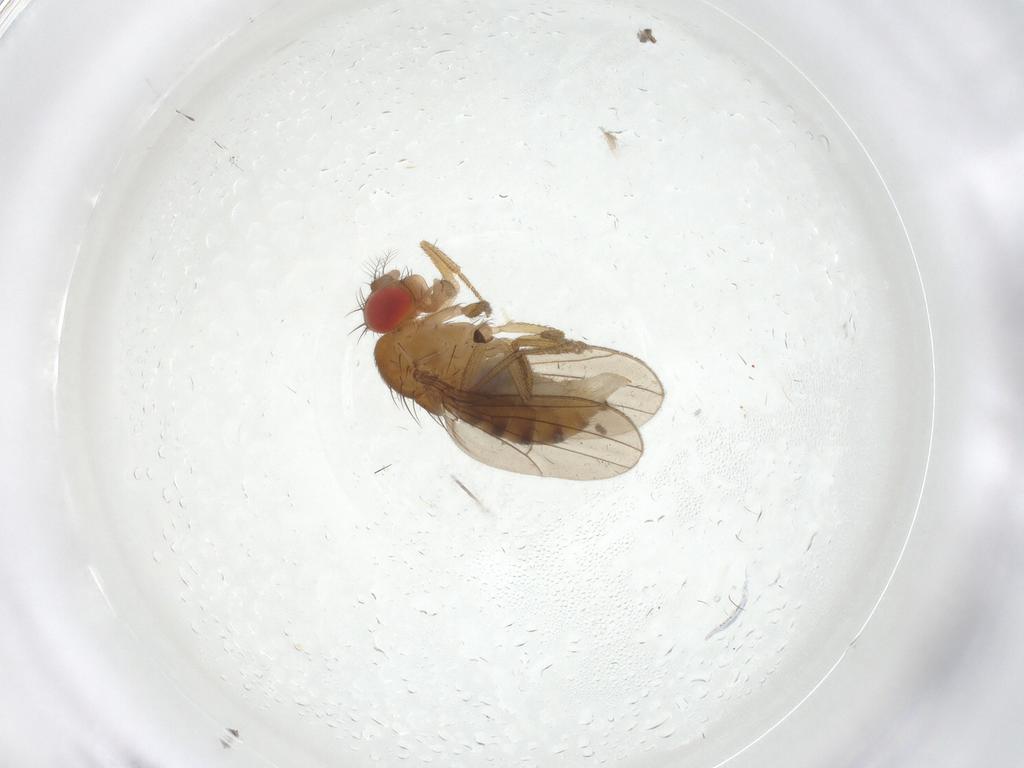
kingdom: Animalia
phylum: Arthropoda
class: Insecta
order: Diptera
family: Drosophilidae
